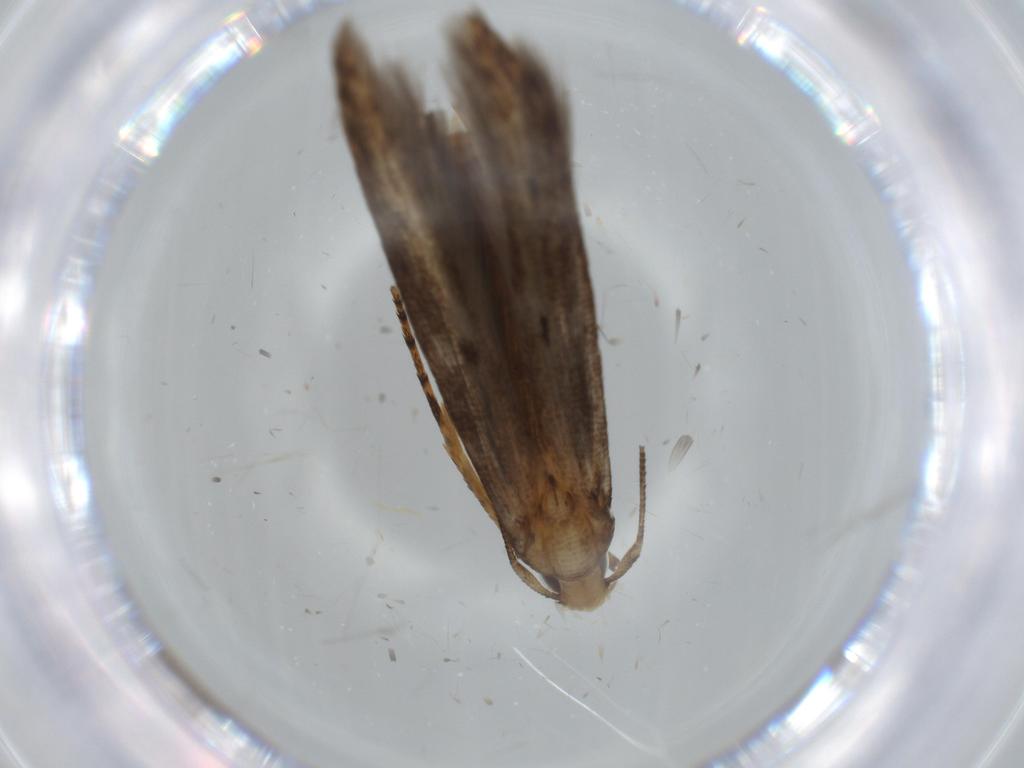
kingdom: Animalia
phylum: Arthropoda
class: Insecta
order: Lepidoptera
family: Heliodinidae
